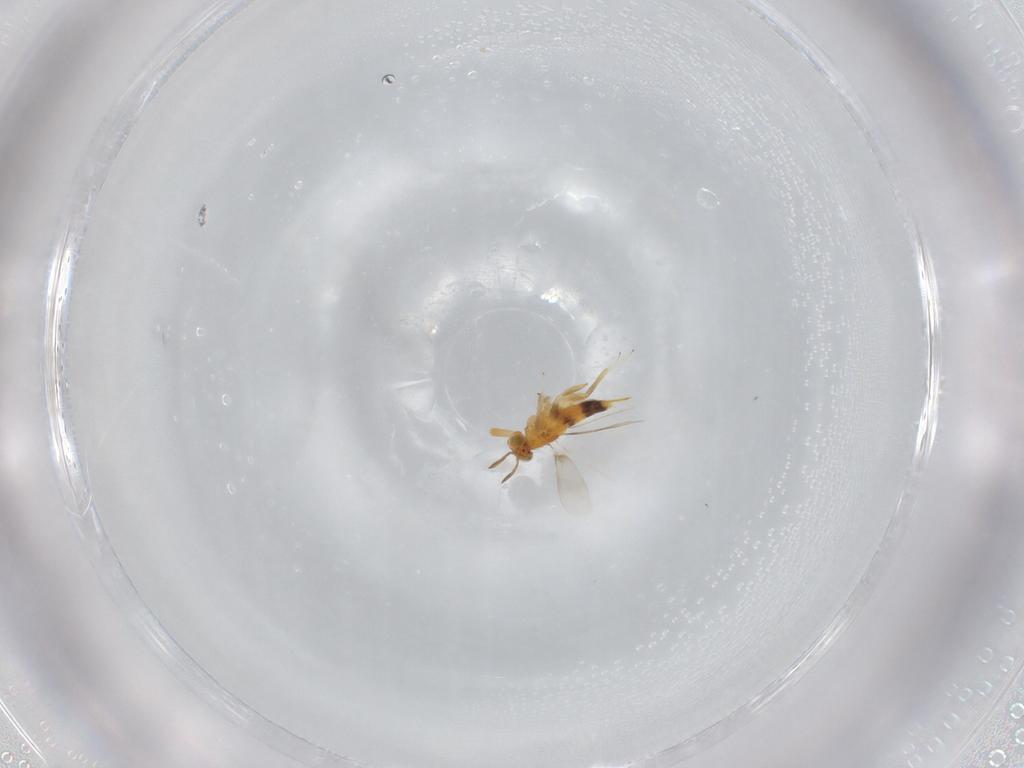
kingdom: Animalia
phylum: Arthropoda
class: Insecta
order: Hymenoptera
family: Aphelinidae
